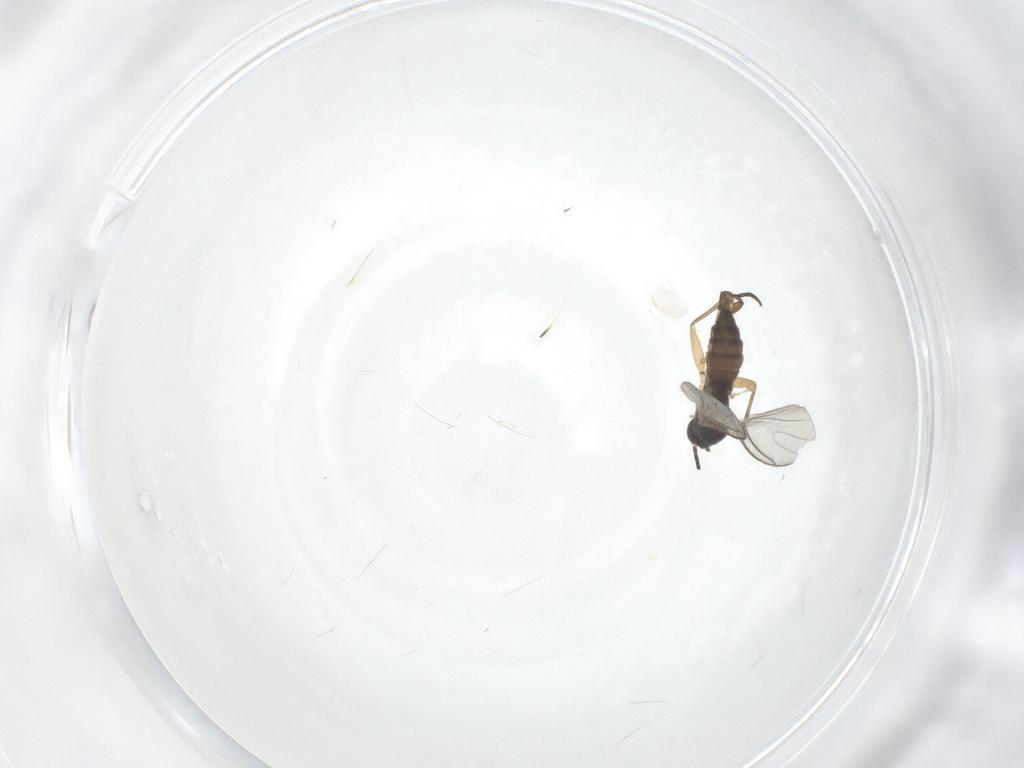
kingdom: Animalia
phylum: Arthropoda
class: Insecta
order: Diptera
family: Sciaridae
